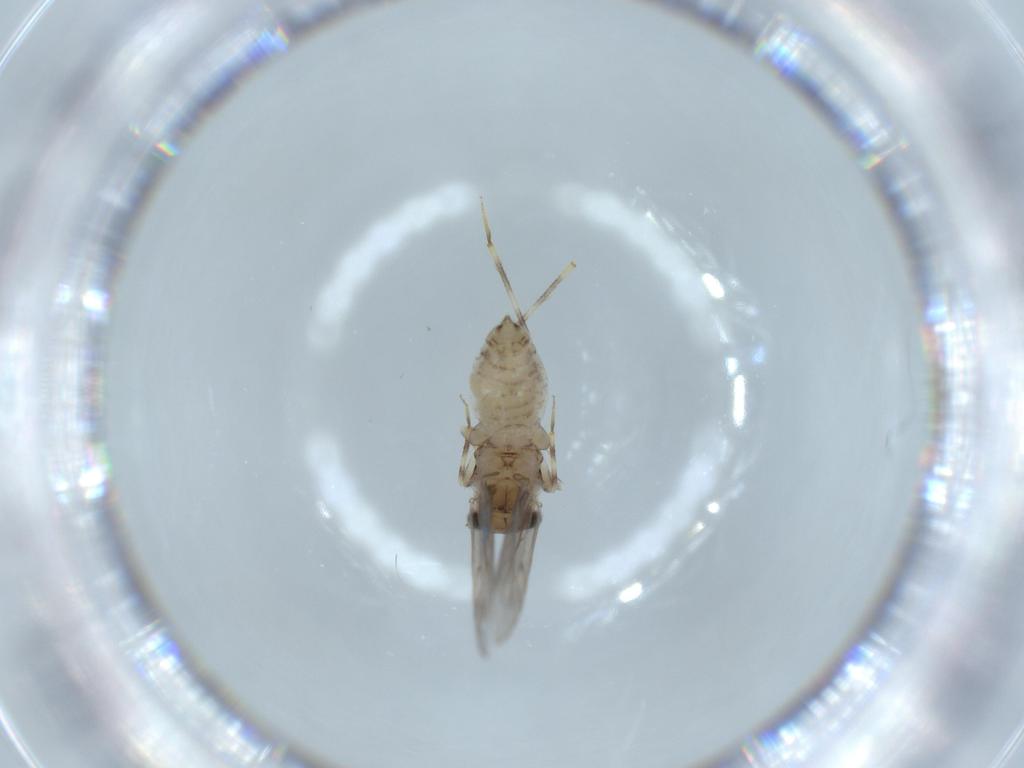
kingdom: Animalia
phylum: Arthropoda
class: Insecta
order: Psocodea
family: Lepidopsocidae
